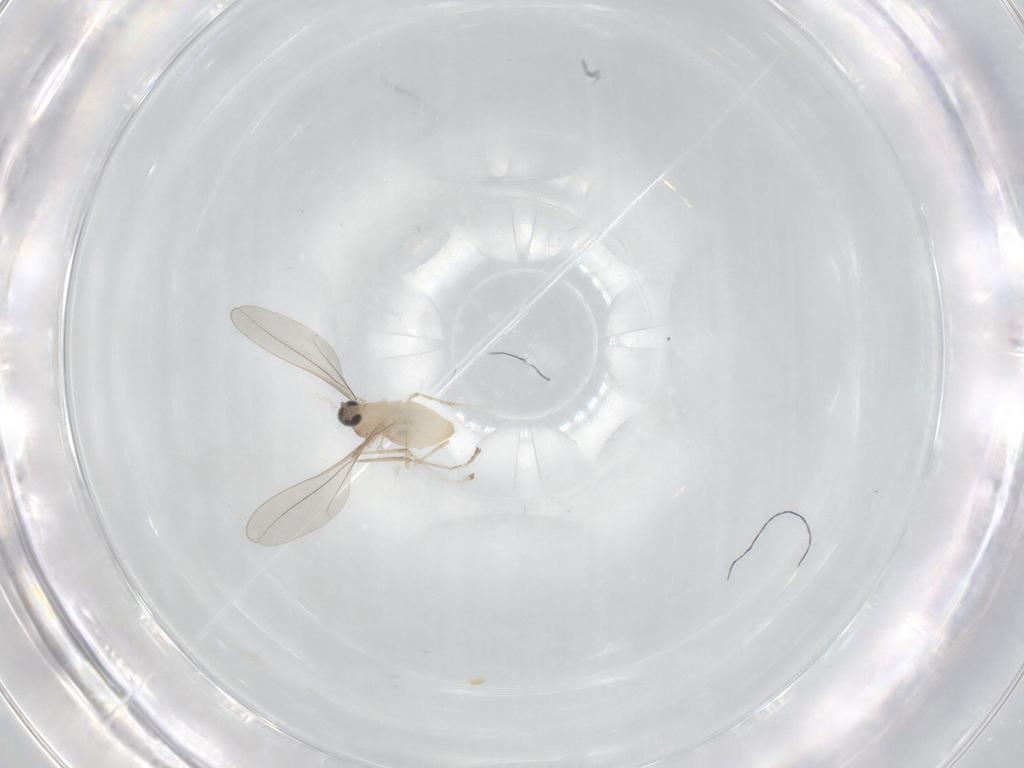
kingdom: Animalia
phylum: Arthropoda
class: Insecta
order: Diptera
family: Cecidomyiidae
